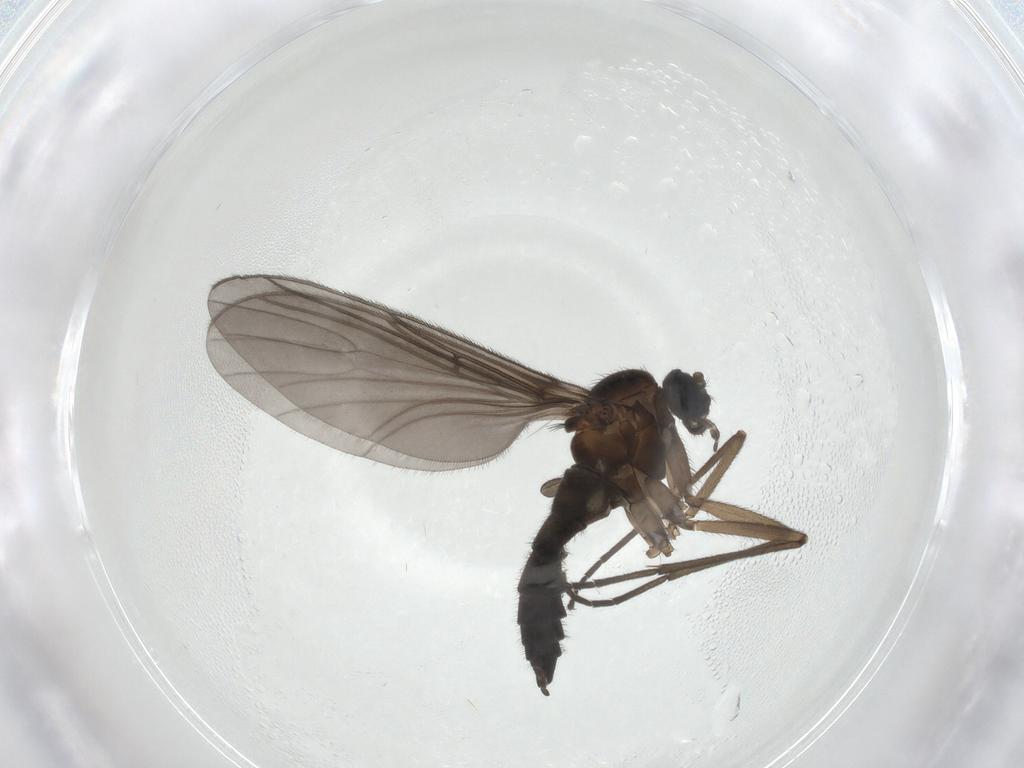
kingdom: Animalia
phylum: Arthropoda
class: Insecta
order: Diptera
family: Sciaridae
